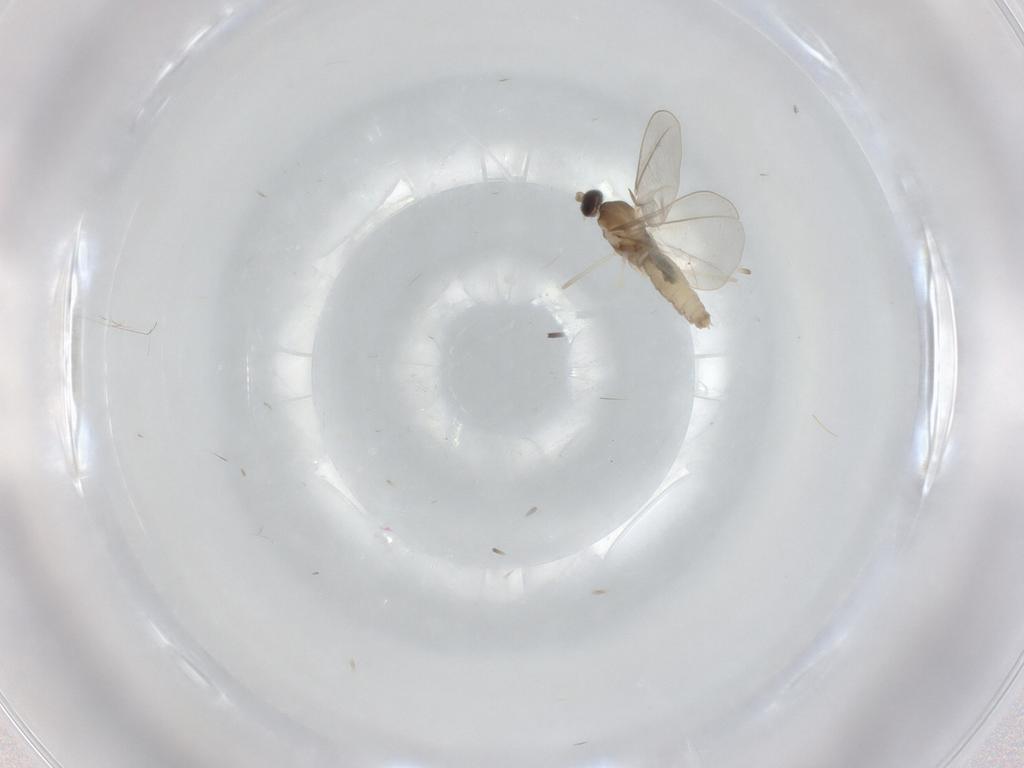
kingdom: Animalia
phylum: Arthropoda
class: Insecta
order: Diptera
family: Cecidomyiidae
